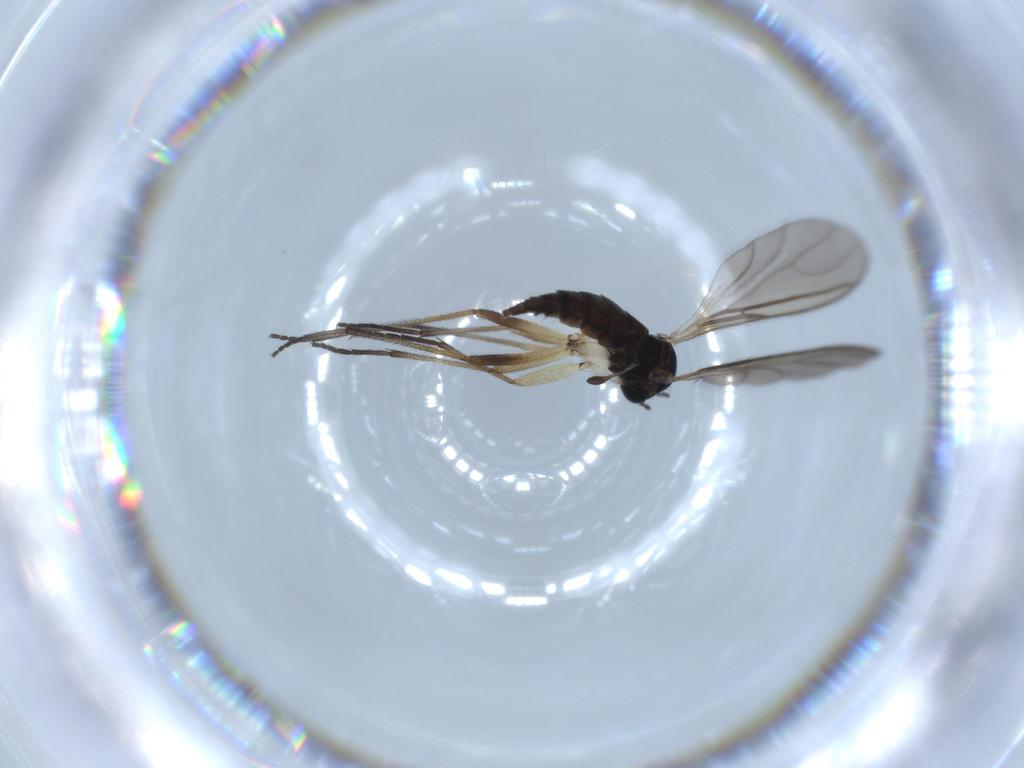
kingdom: Animalia
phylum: Arthropoda
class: Insecta
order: Diptera
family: Sciaridae
